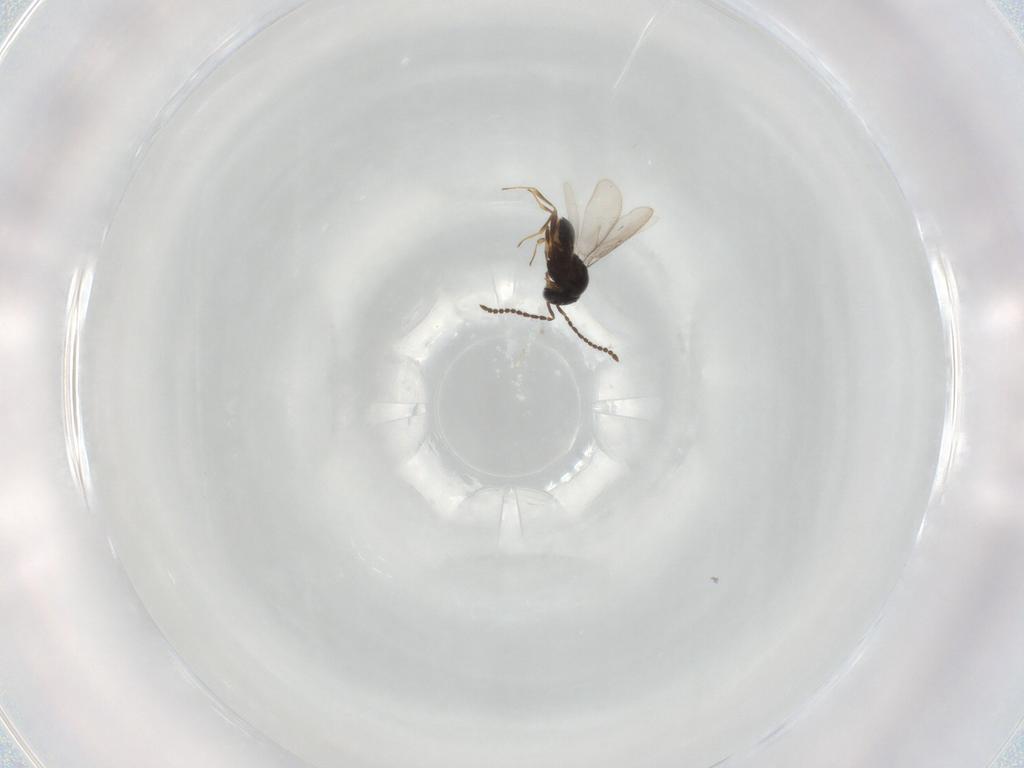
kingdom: Animalia
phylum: Arthropoda
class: Insecta
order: Hymenoptera
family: Scelionidae
